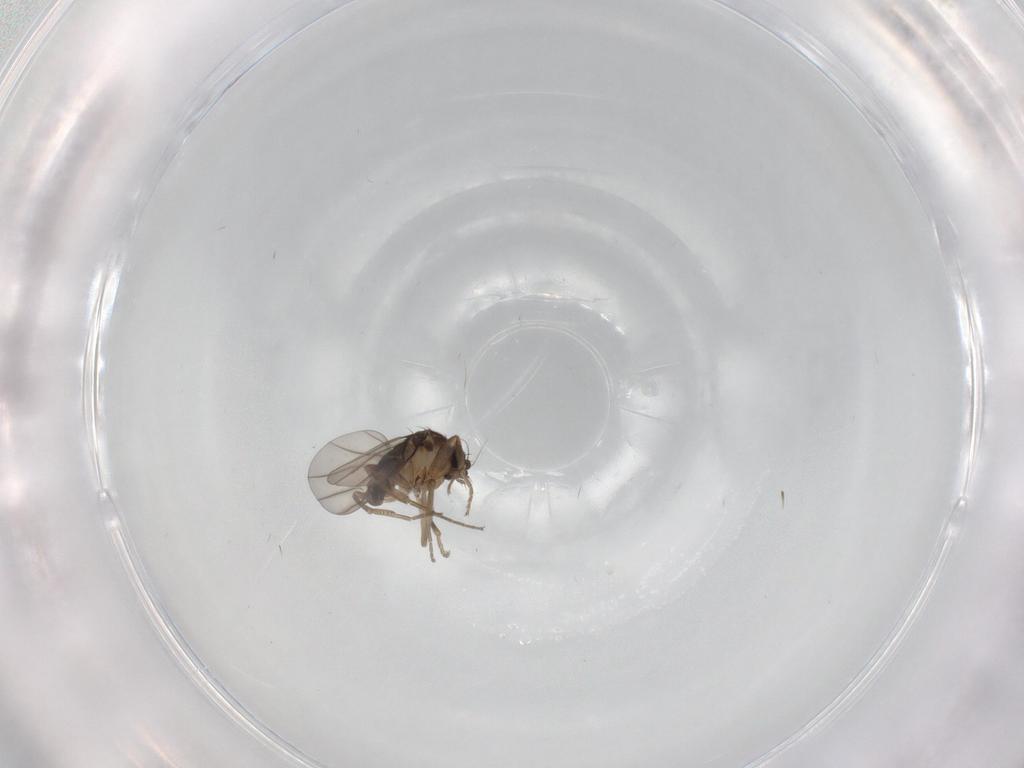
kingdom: Animalia
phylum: Arthropoda
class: Insecta
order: Diptera
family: Phoridae
